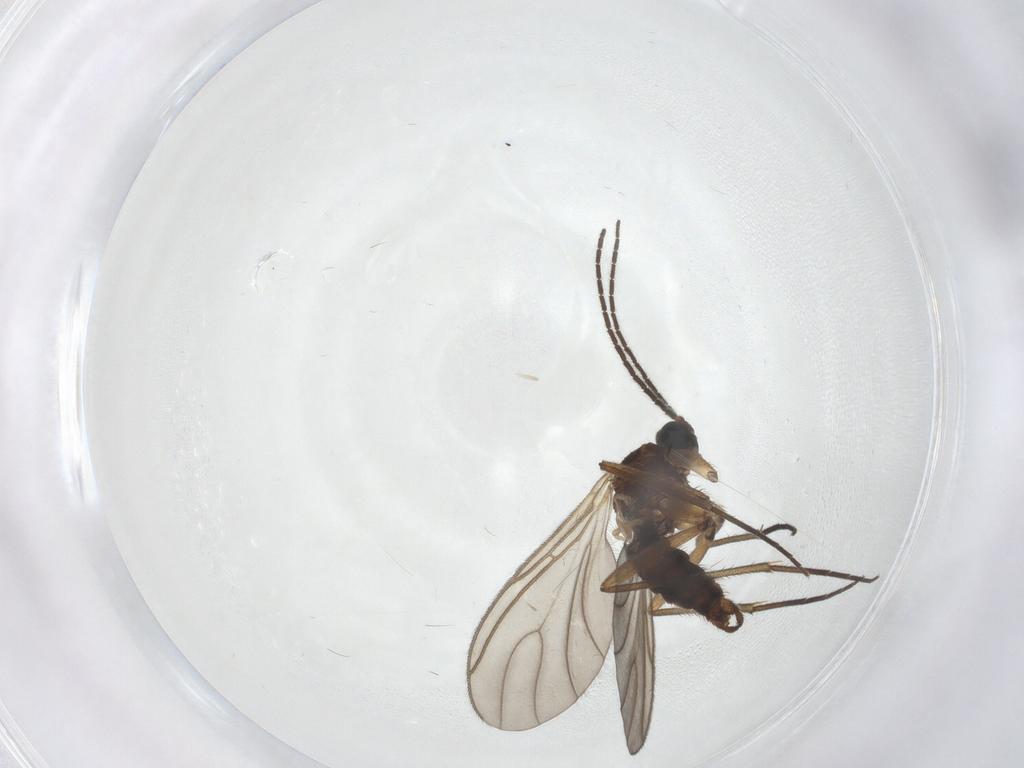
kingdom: Animalia
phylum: Arthropoda
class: Insecta
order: Diptera
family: Sciaridae
